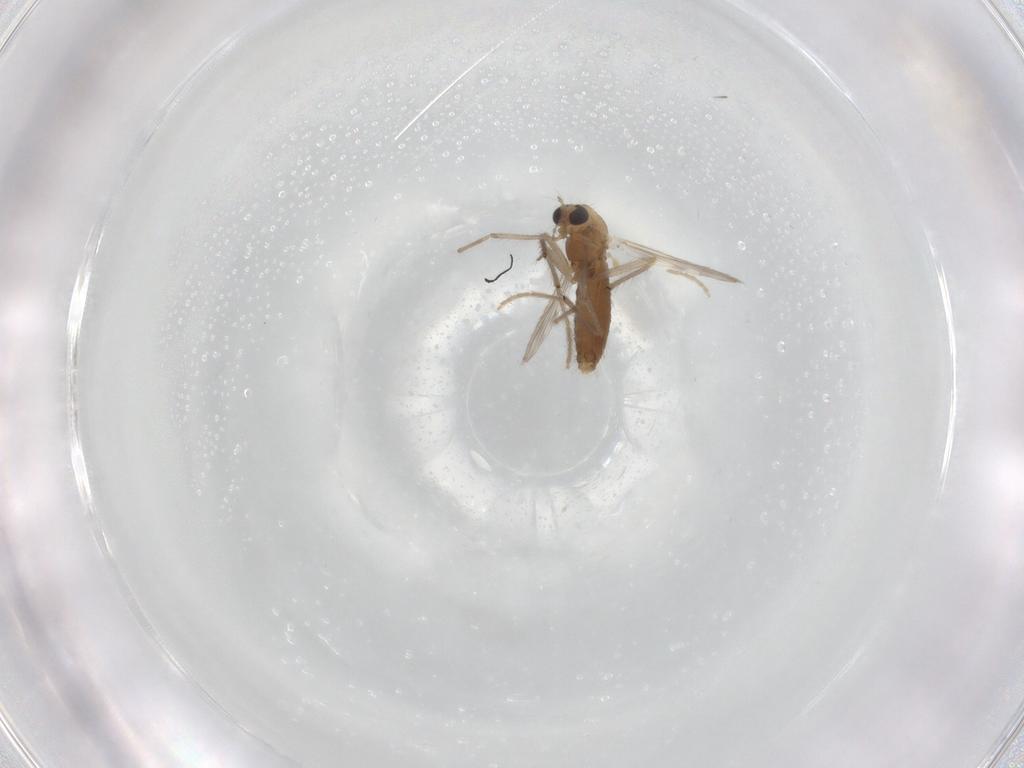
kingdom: Animalia
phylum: Arthropoda
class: Insecta
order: Diptera
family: Chironomidae
